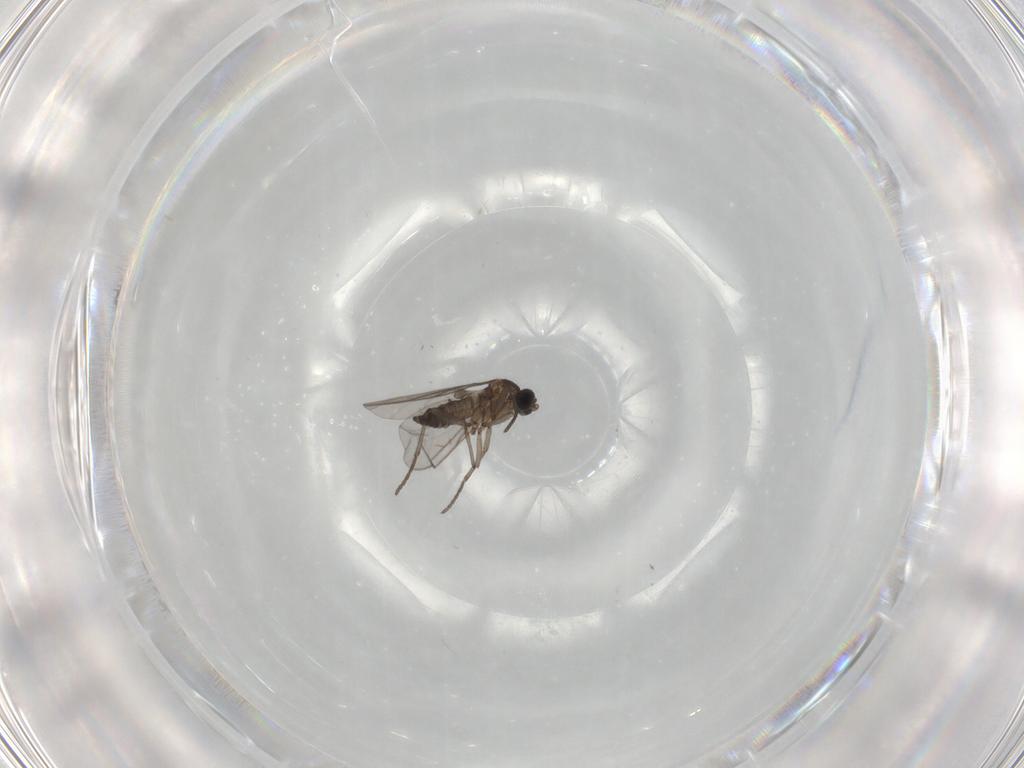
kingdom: Animalia
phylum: Arthropoda
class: Insecta
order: Diptera
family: Sciaridae
